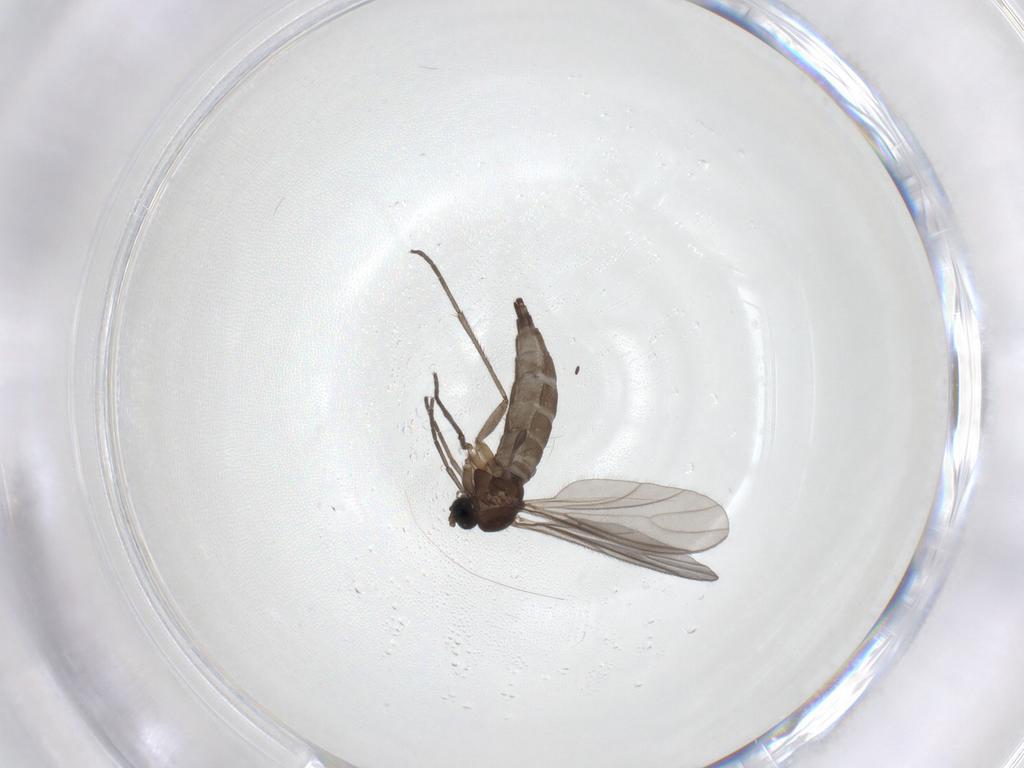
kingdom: Animalia
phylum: Arthropoda
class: Insecta
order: Diptera
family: Sciaridae
